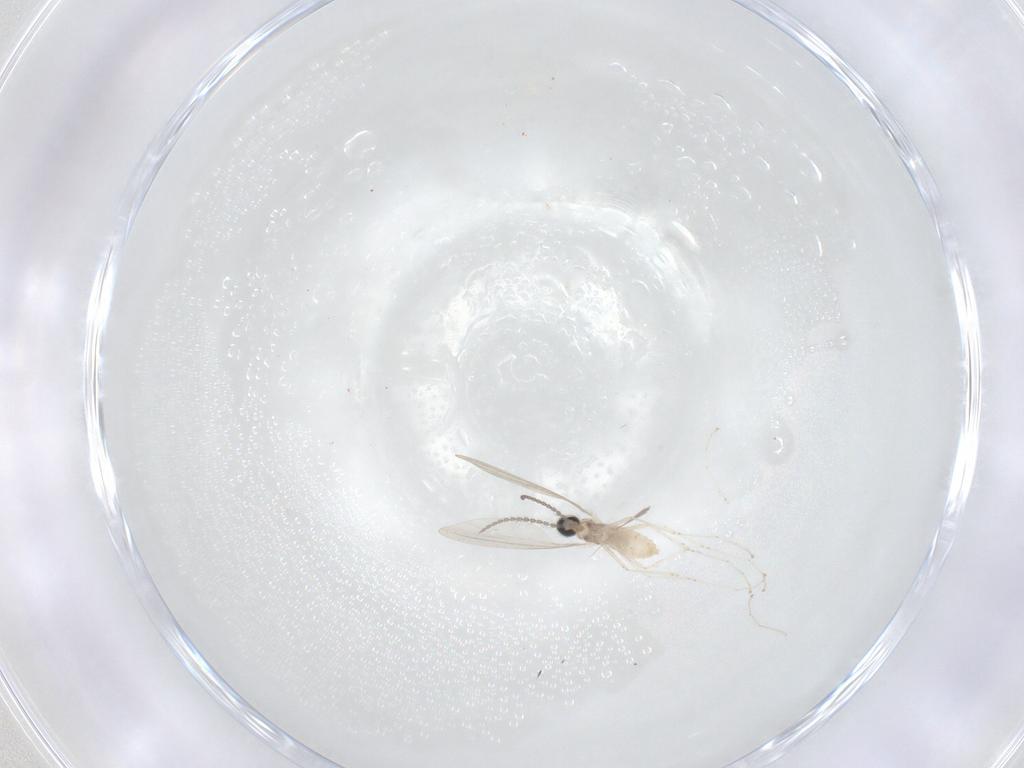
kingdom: Animalia
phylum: Arthropoda
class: Insecta
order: Diptera
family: Cecidomyiidae
